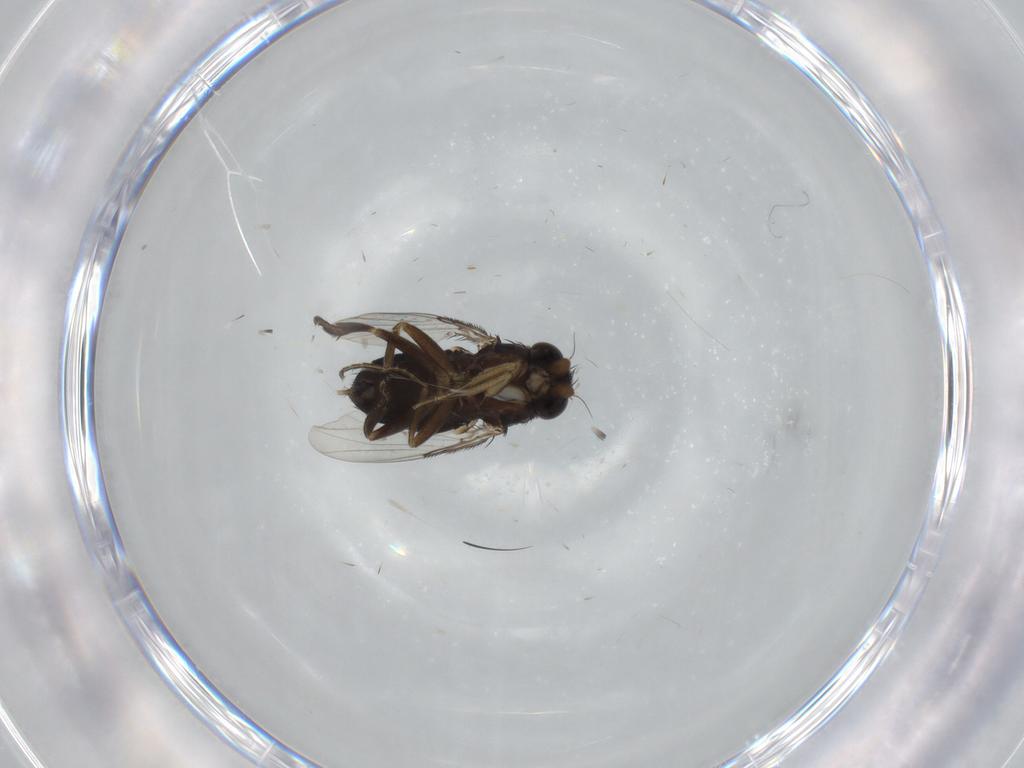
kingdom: Animalia
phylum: Arthropoda
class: Insecta
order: Diptera
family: Phoridae
